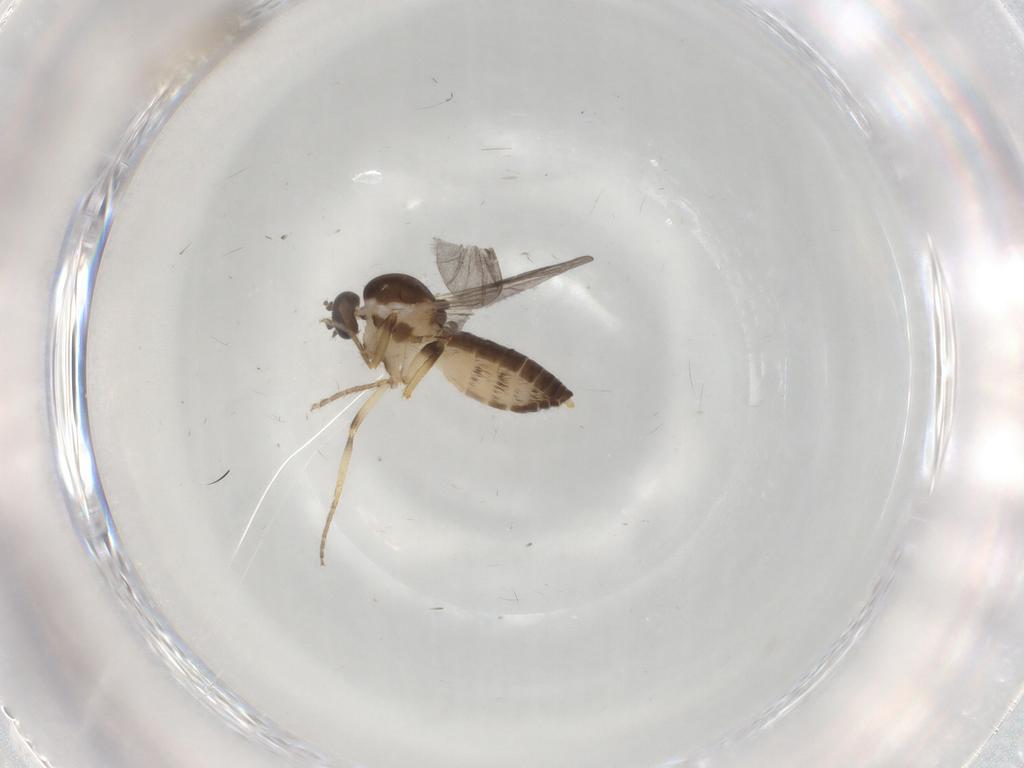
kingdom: Animalia
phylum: Arthropoda
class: Insecta
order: Diptera
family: Ceratopogonidae
